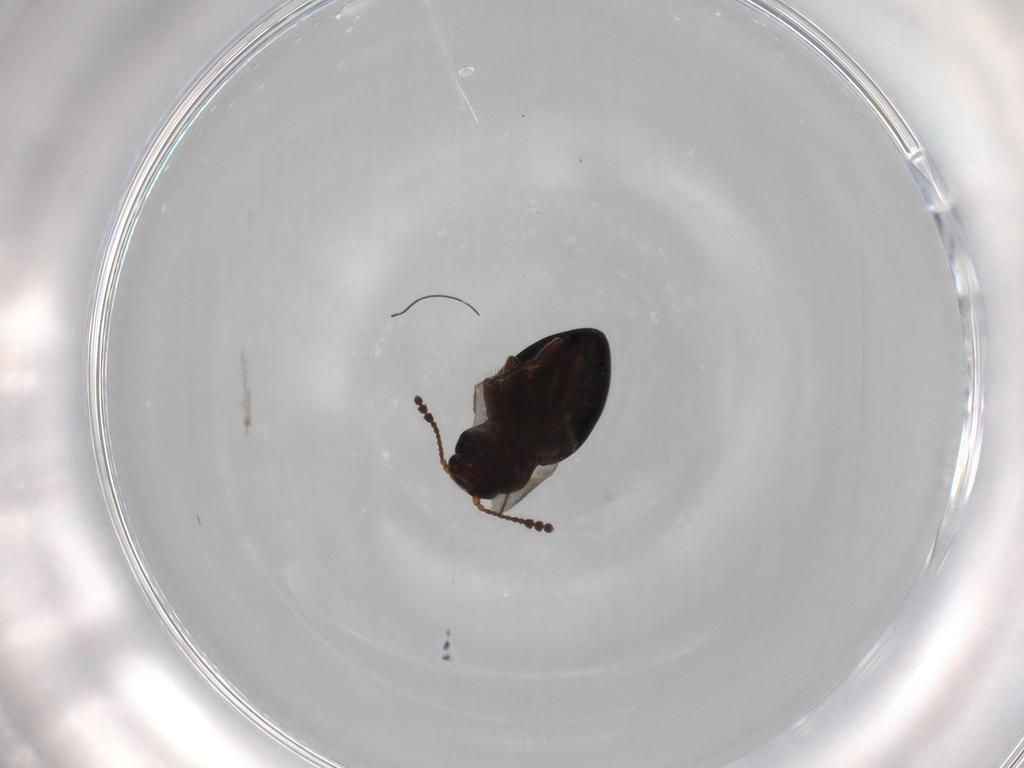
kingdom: Animalia
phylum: Arthropoda
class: Insecta
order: Coleoptera
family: Erotylidae
